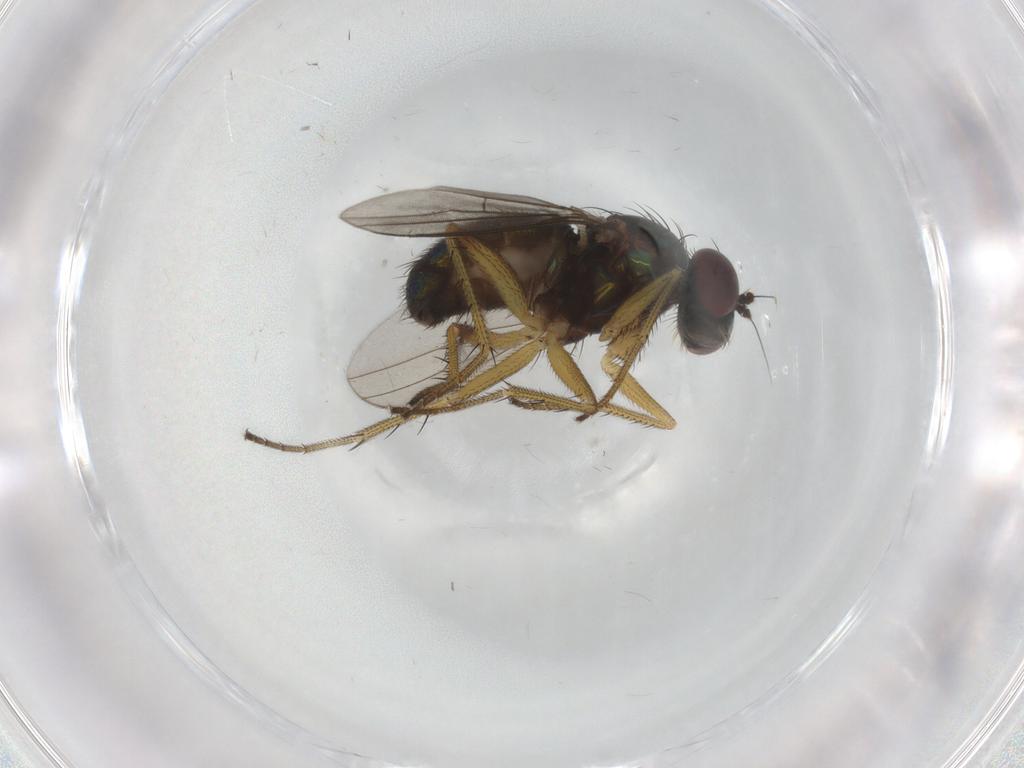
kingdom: Animalia
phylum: Arthropoda
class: Insecta
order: Diptera
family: Dolichopodidae
